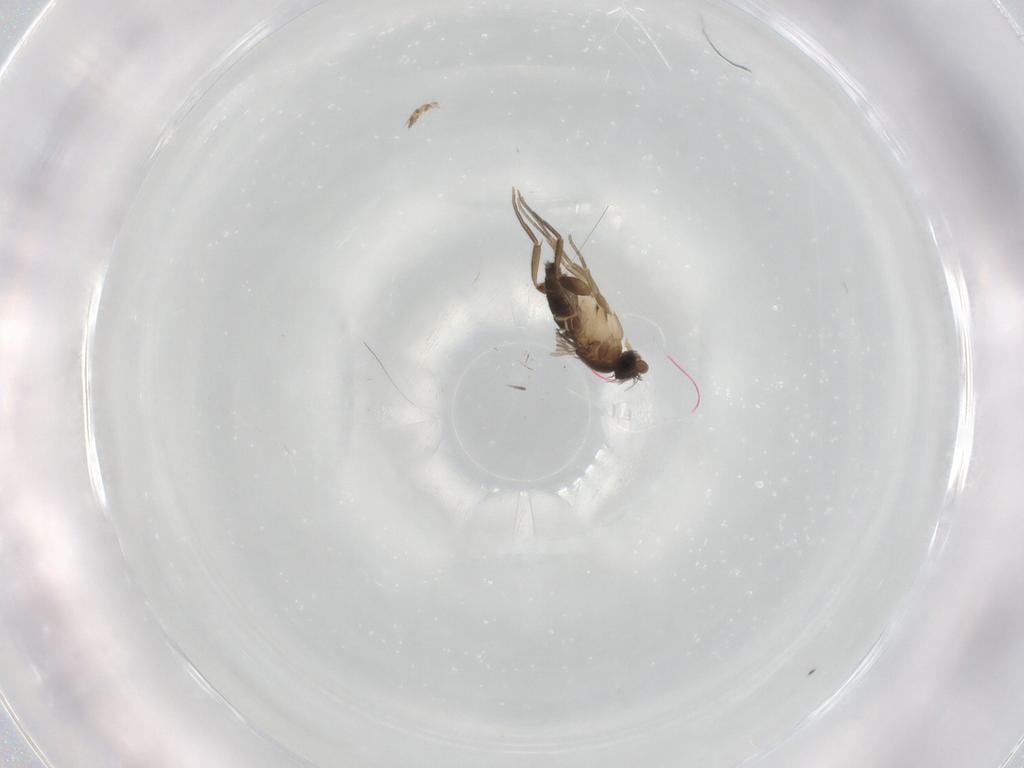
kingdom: Animalia
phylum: Arthropoda
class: Insecta
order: Diptera
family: Phoridae
